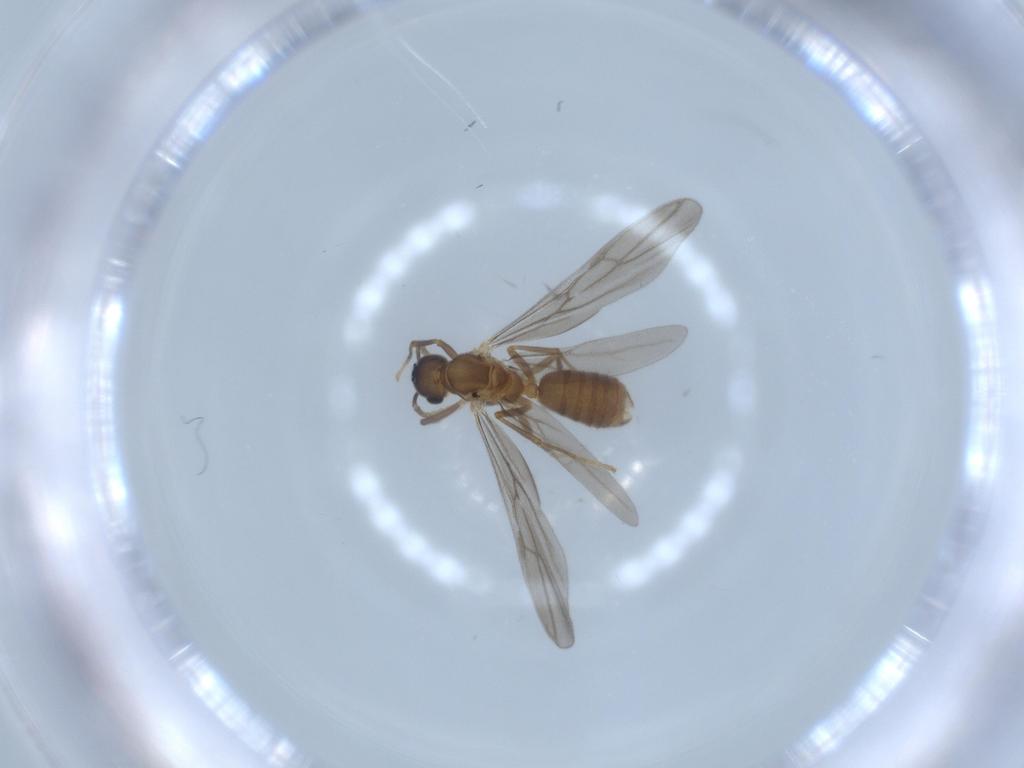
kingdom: Animalia
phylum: Arthropoda
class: Insecta
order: Hymenoptera
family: Formicidae
